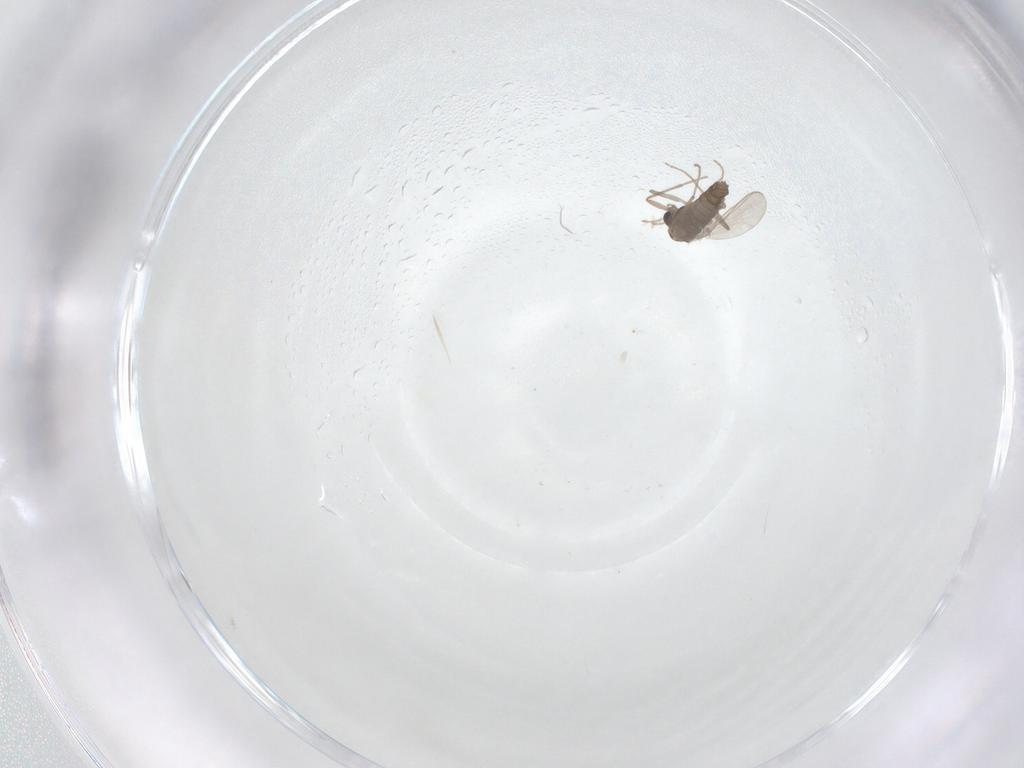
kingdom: Animalia
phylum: Arthropoda
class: Insecta
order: Diptera
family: Chironomidae
